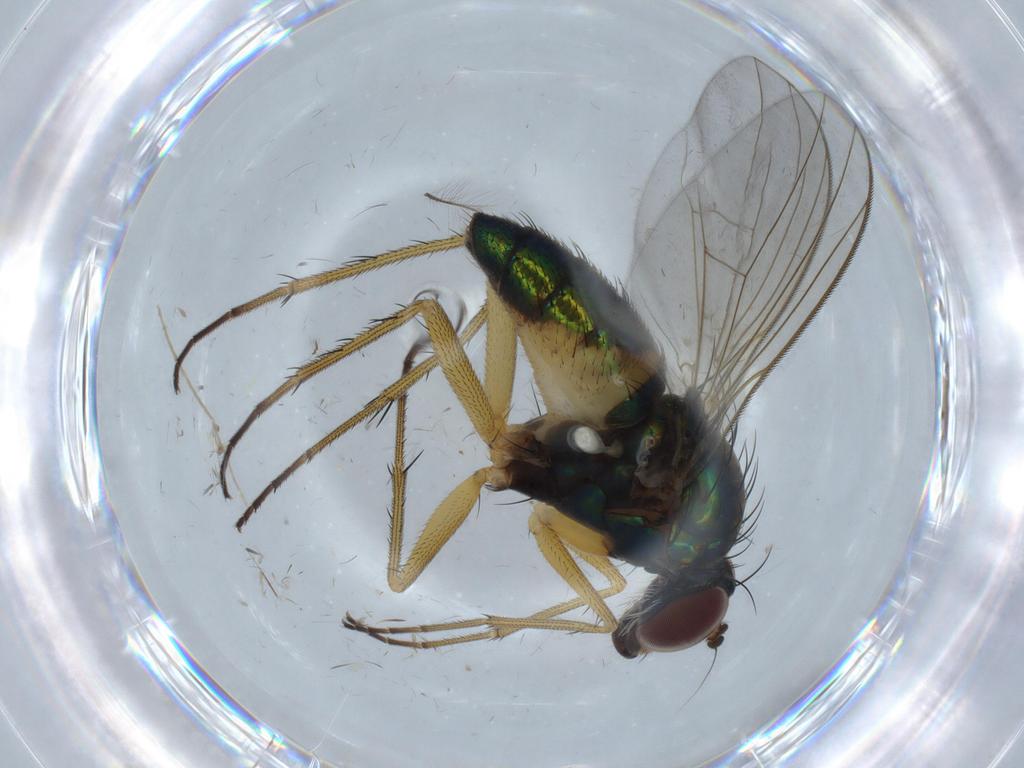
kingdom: Animalia
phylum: Arthropoda
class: Insecta
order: Diptera
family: Dolichopodidae
